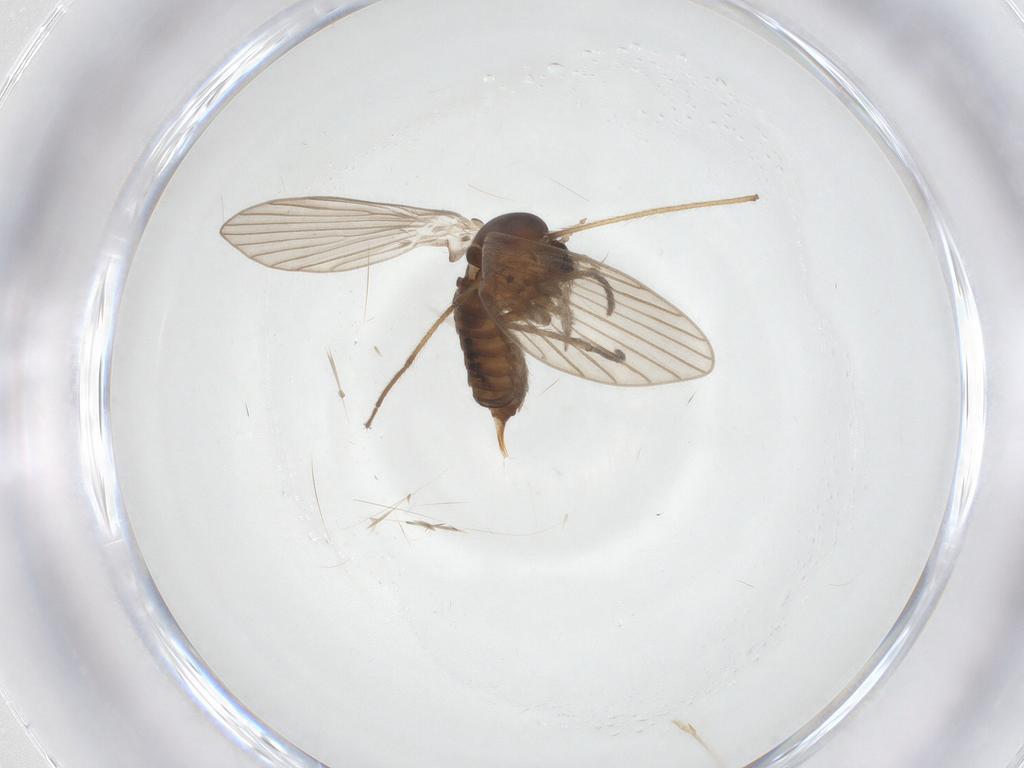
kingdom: Animalia
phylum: Arthropoda
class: Insecta
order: Diptera
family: Psychodidae
